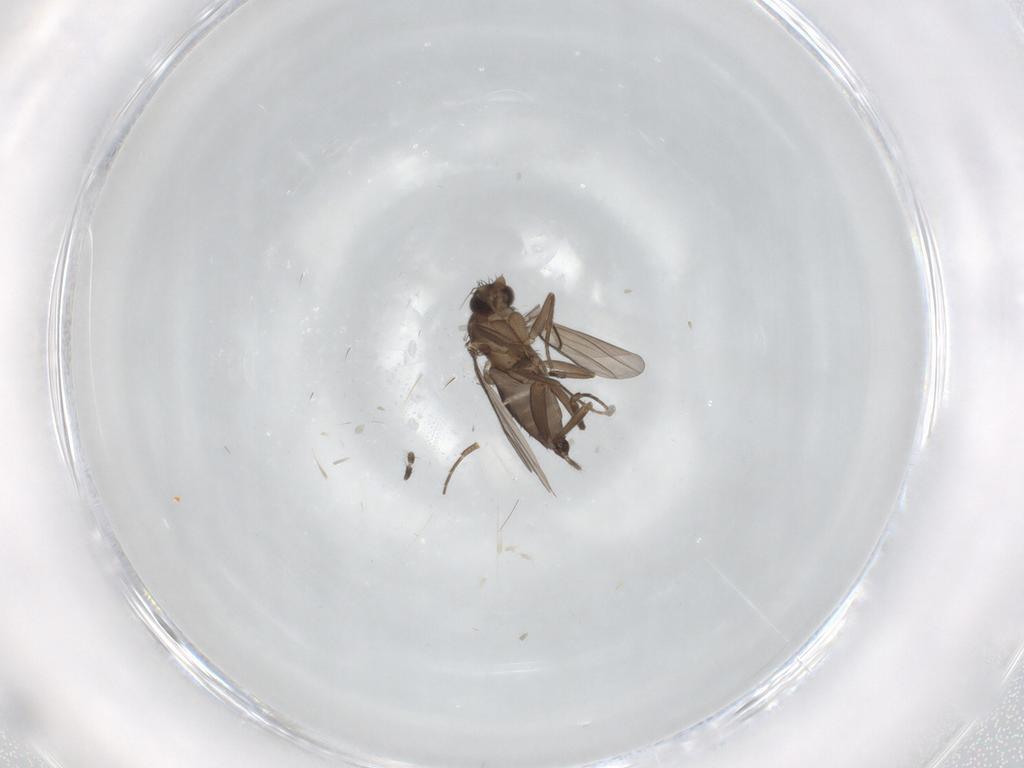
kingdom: Animalia
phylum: Arthropoda
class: Insecta
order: Diptera
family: Phoridae
